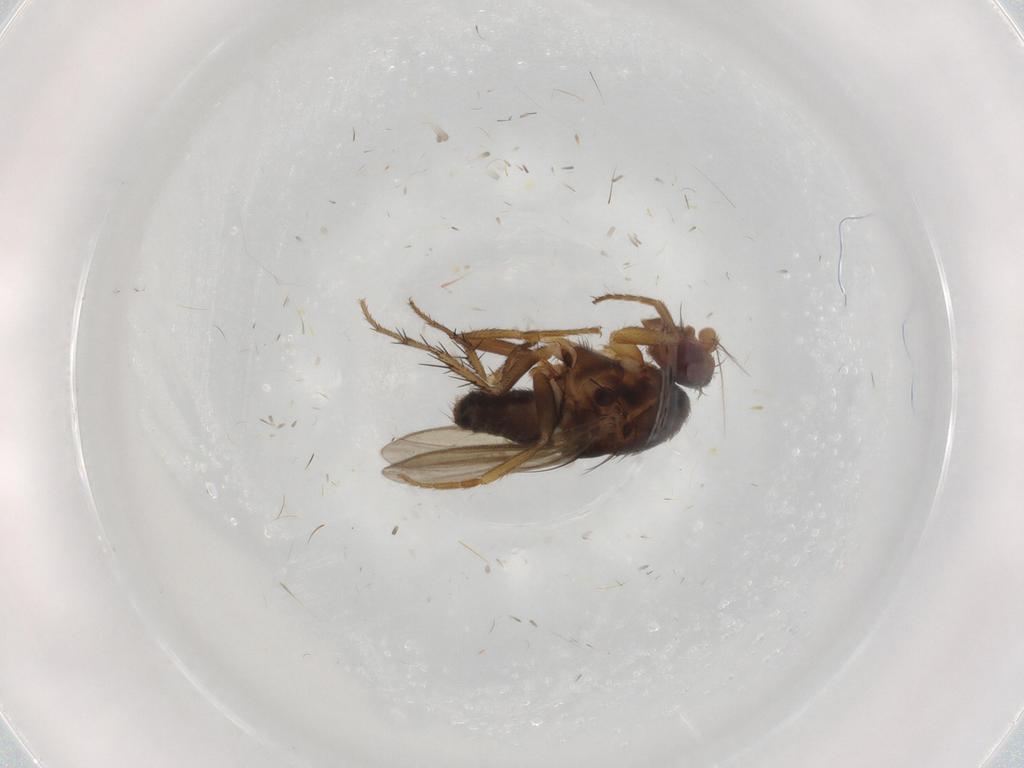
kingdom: Animalia
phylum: Arthropoda
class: Insecta
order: Diptera
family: Sphaeroceridae
